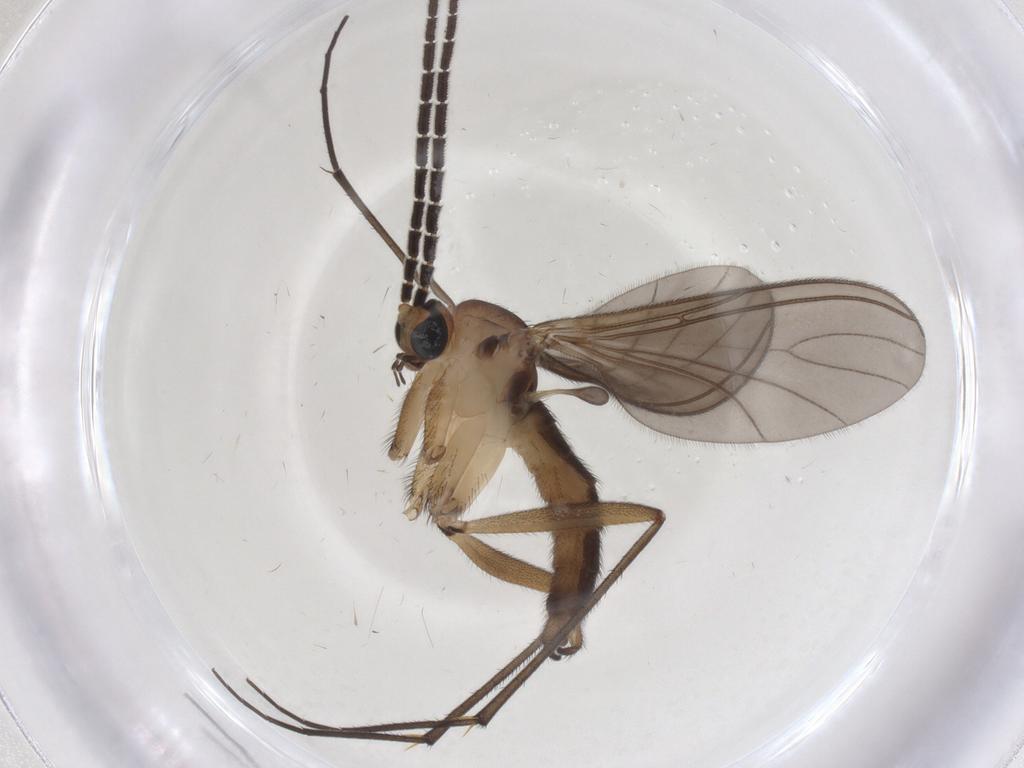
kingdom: Animalia
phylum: Arthropoda
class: Insecta
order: Diptera
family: Sciaridae
